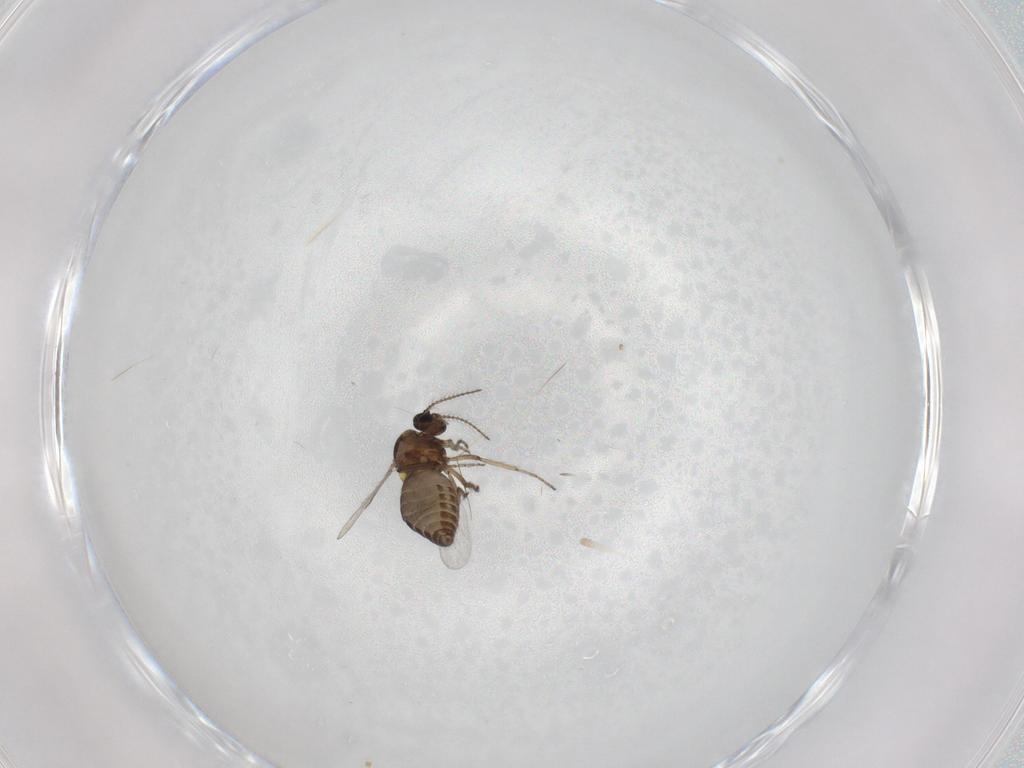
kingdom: Animalia
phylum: Arthropoda
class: Insecta
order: Diptera
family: Ceratopogonidae
